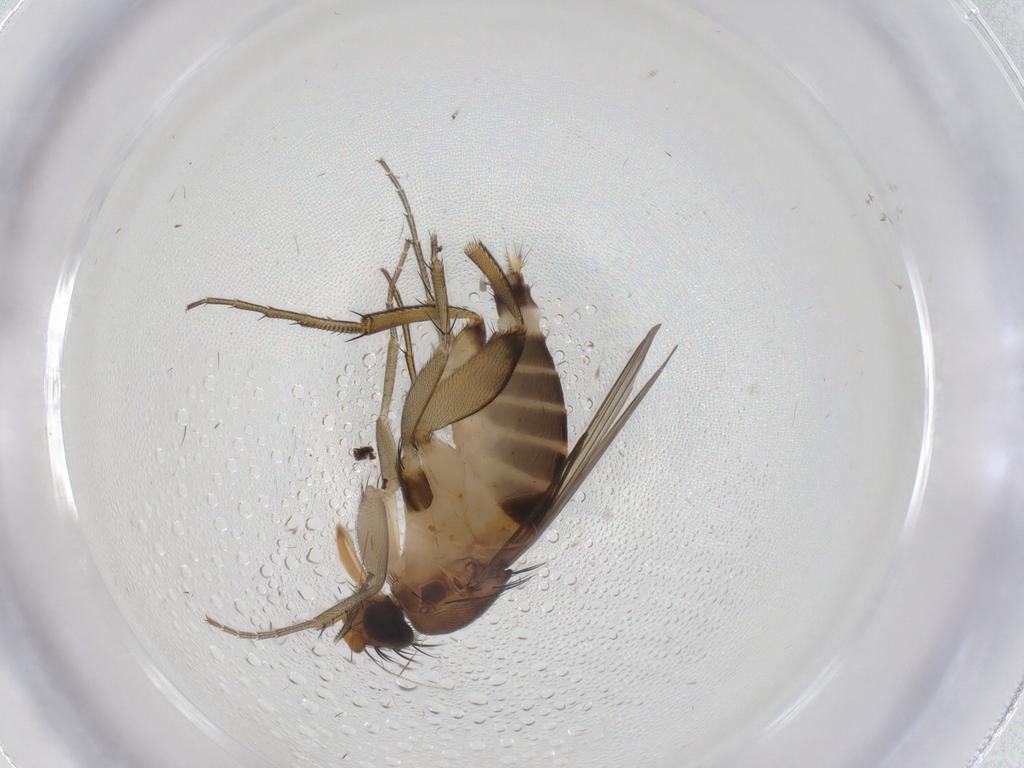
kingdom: Animalia
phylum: Arthropoda
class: Insecta
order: Diptera
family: Phoridae
